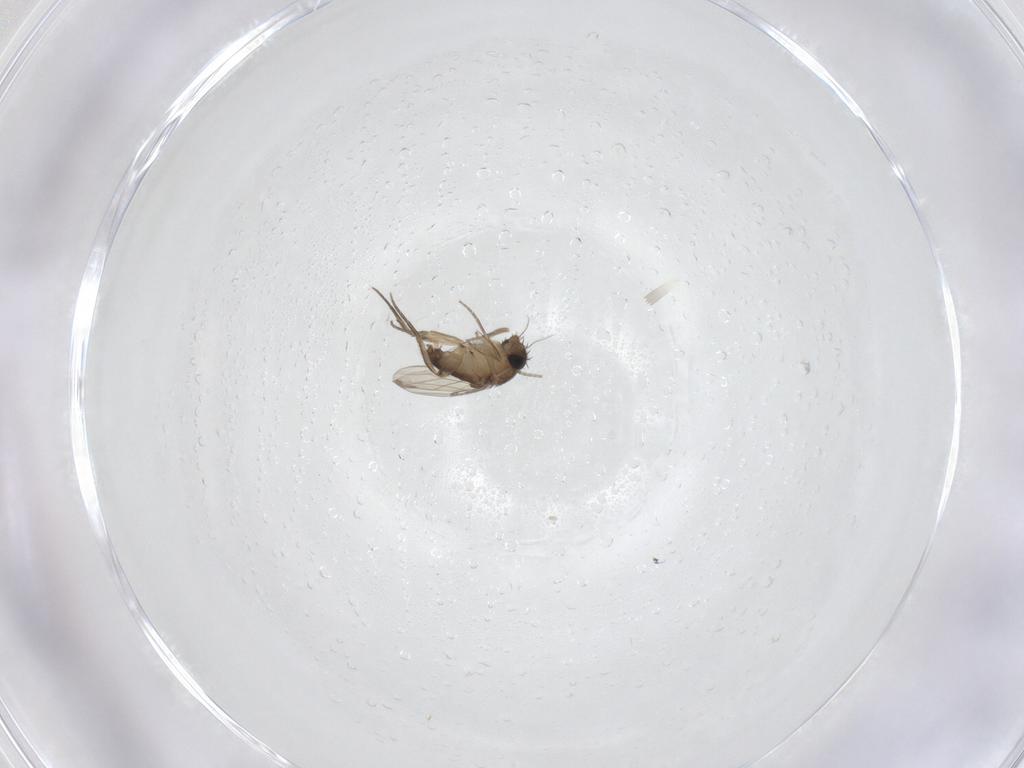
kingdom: Animalia
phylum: Arthropoda
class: Insecta
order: Diptera
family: Phoridae
